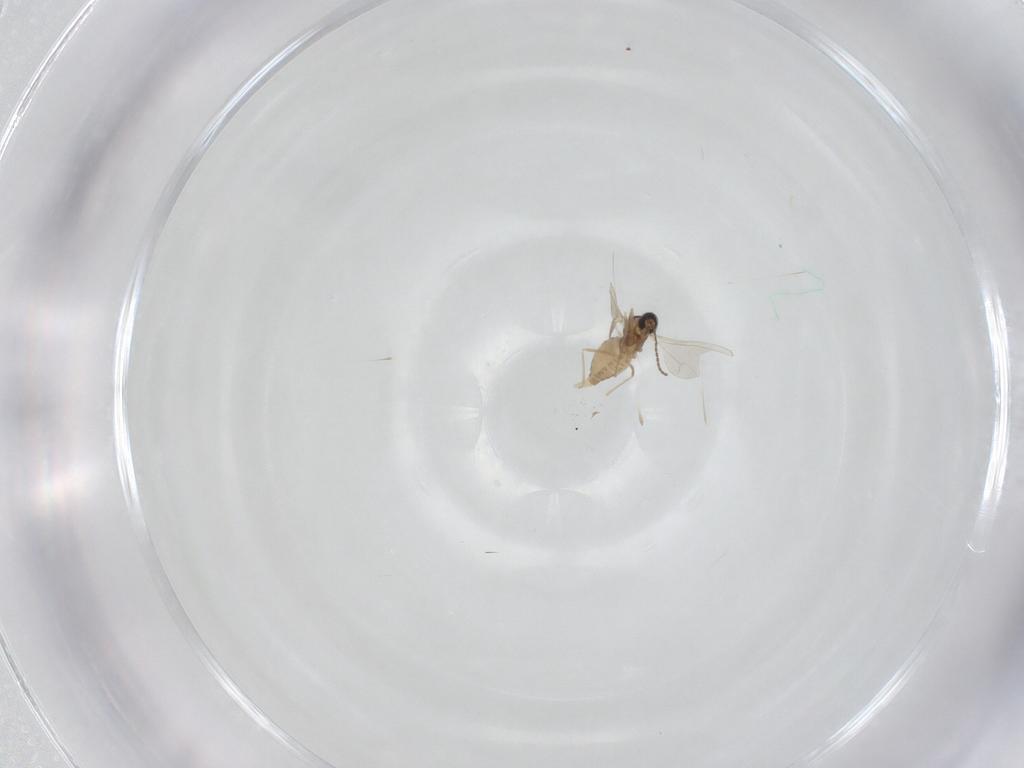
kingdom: Animalia
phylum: Arthropoda
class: Insecta
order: Diptera
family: Cecidomyiidae
